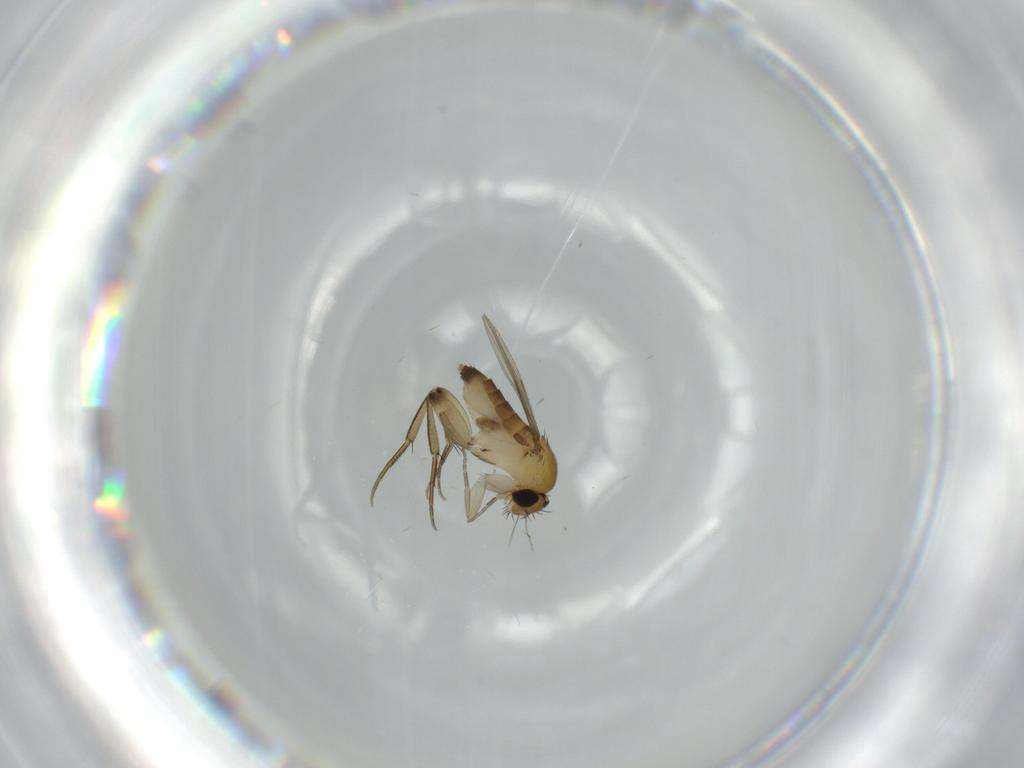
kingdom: Animalia
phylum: Arthropoda
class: Insecta
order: Diptera
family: Phoridae
